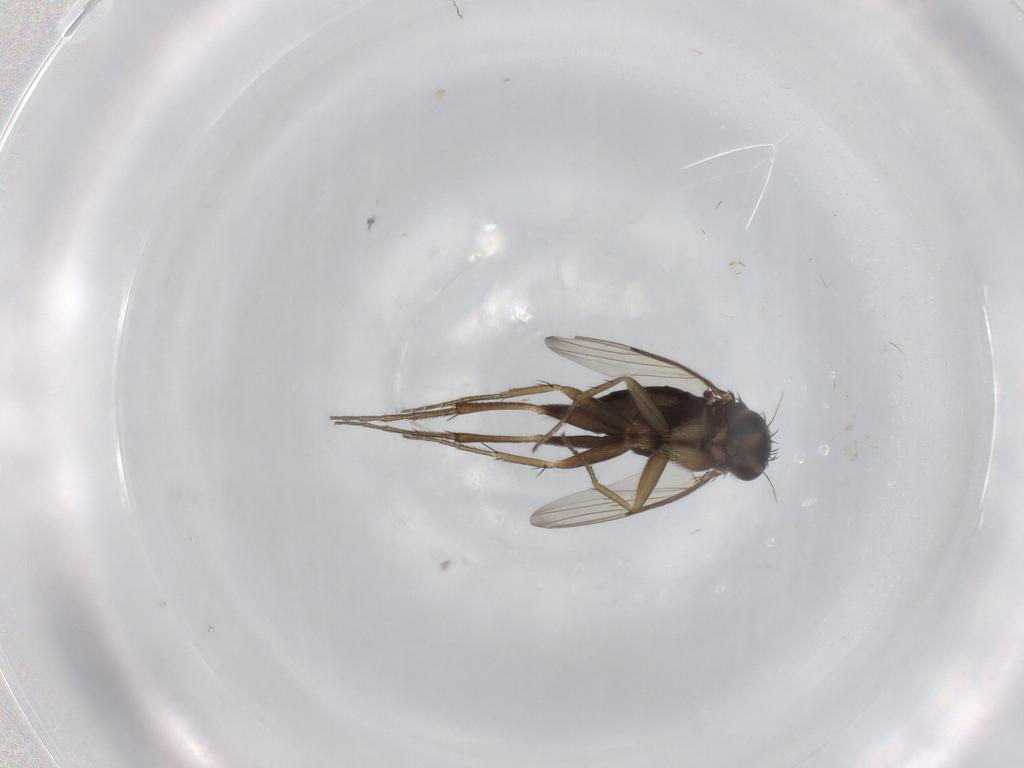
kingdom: Animalia
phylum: Arthropoda
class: Insecta
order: Diptera
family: Phoridae
